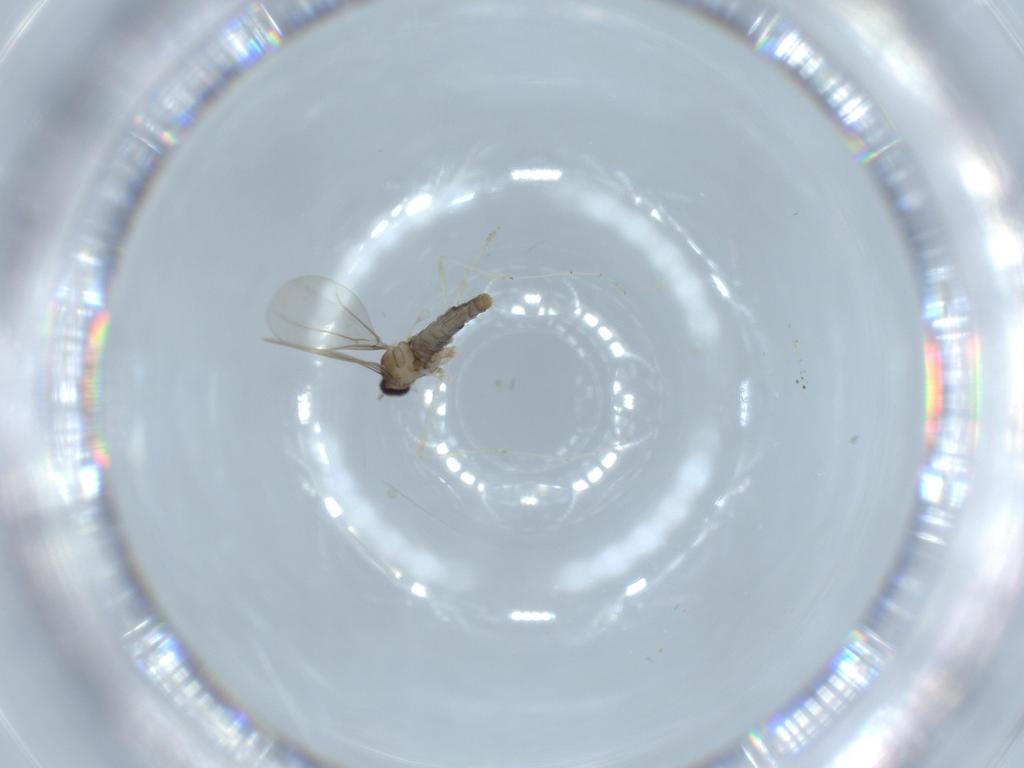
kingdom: Animalia
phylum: Arthropoda
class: Insecta
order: Diptera
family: Cecidomyiidae
